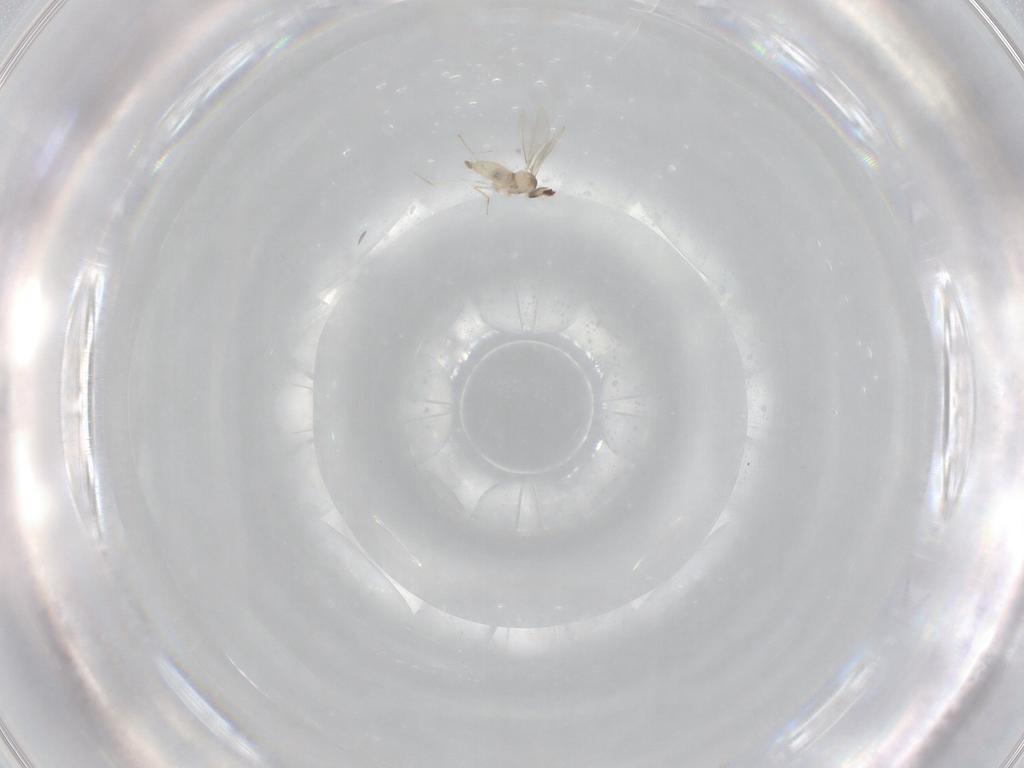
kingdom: Animalia
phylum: Arthropoda
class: Insecta
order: Diptera
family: Cecidomyiidae
